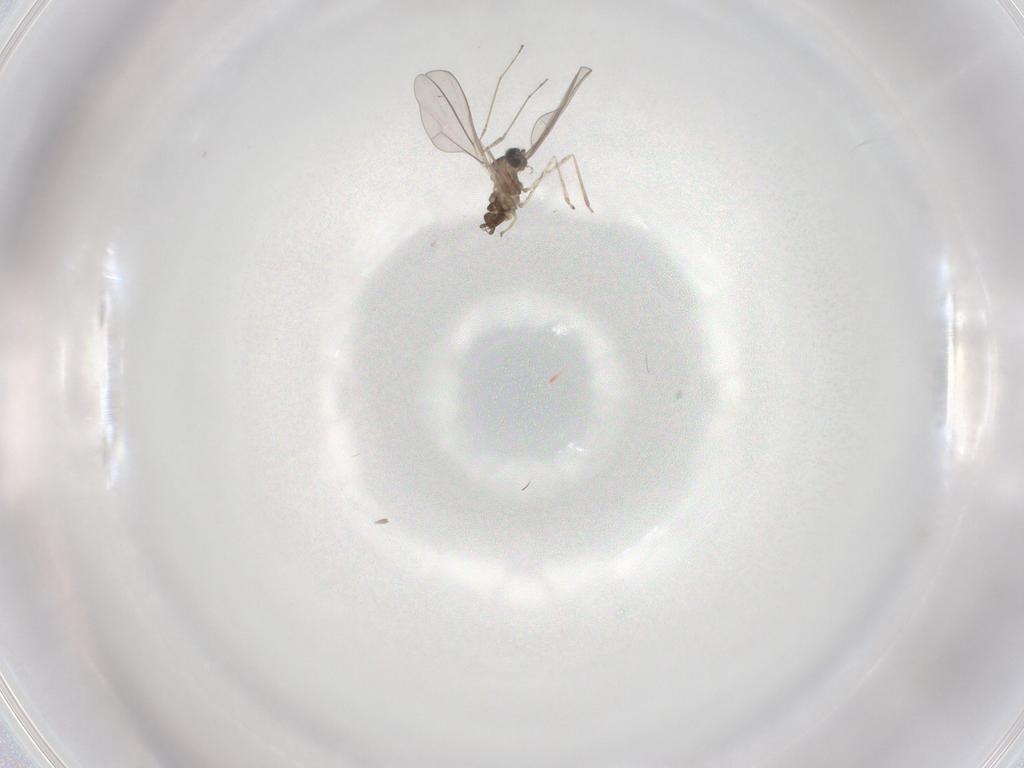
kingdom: Animalia
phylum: Arthropoda
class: Insecta
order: Diptera
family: Cecidomyiidae
